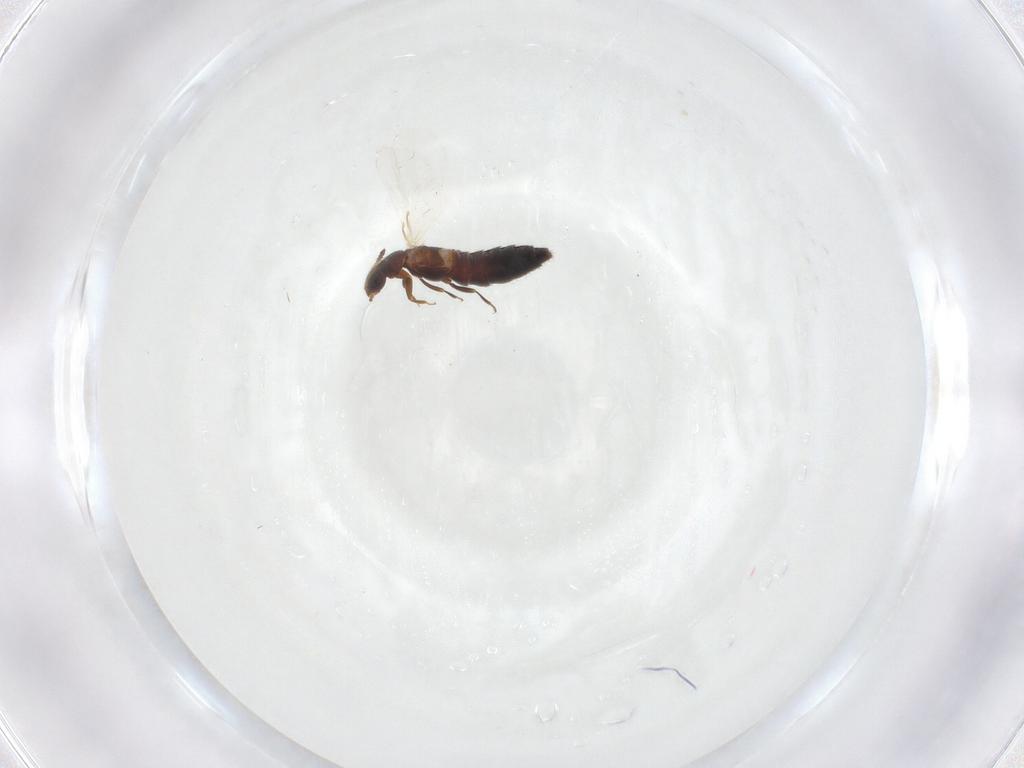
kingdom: Animalia
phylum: Arthropoda
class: Insecta
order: Coleoptera
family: Staphylinidae
